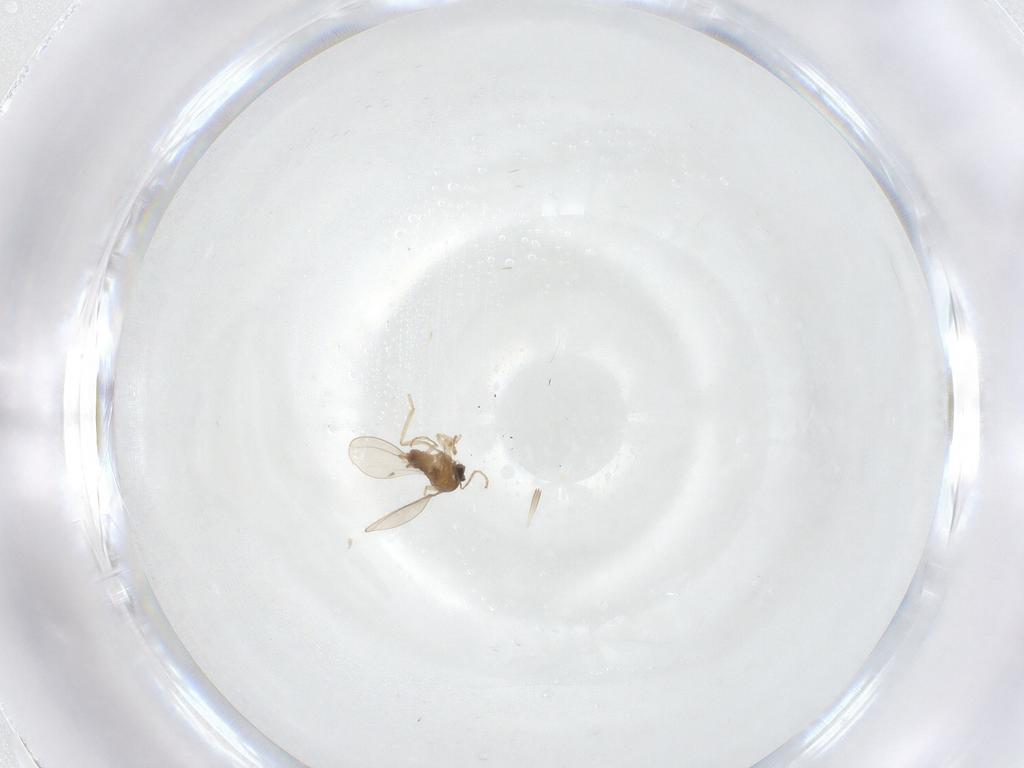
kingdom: Animalia
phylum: Arthropoda
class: Insecta
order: Diptera
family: Cecidomyiidae
